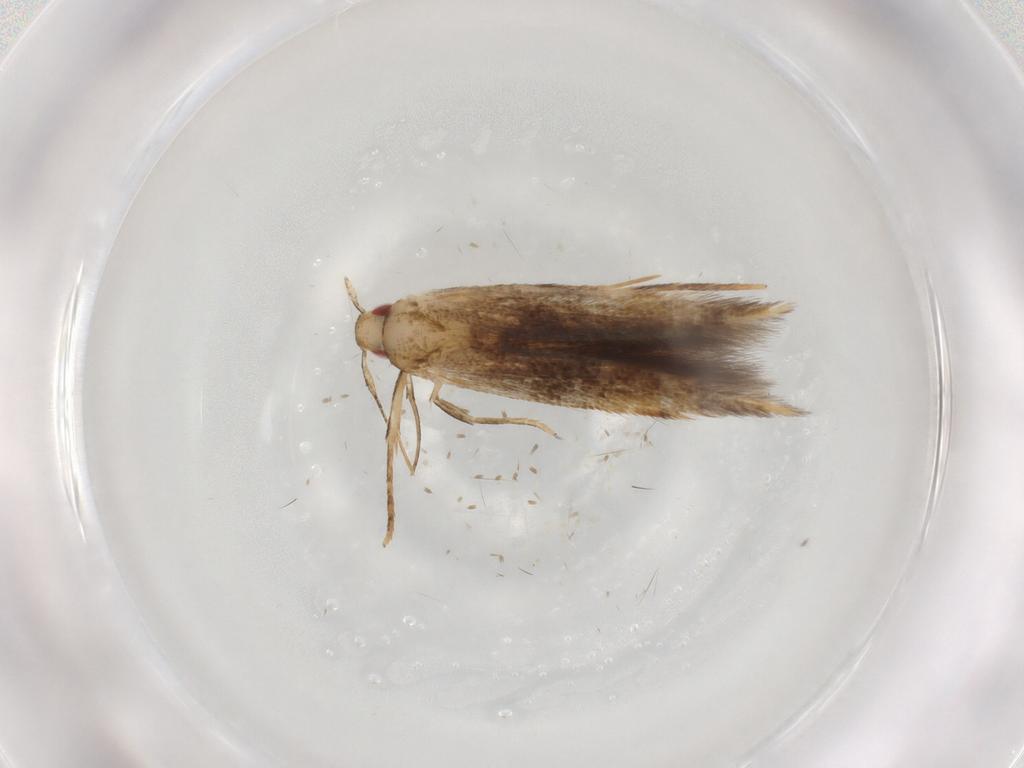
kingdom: Animalia
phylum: Arthropoda
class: Insecta
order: Lepidoptera
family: Gelechiidae
